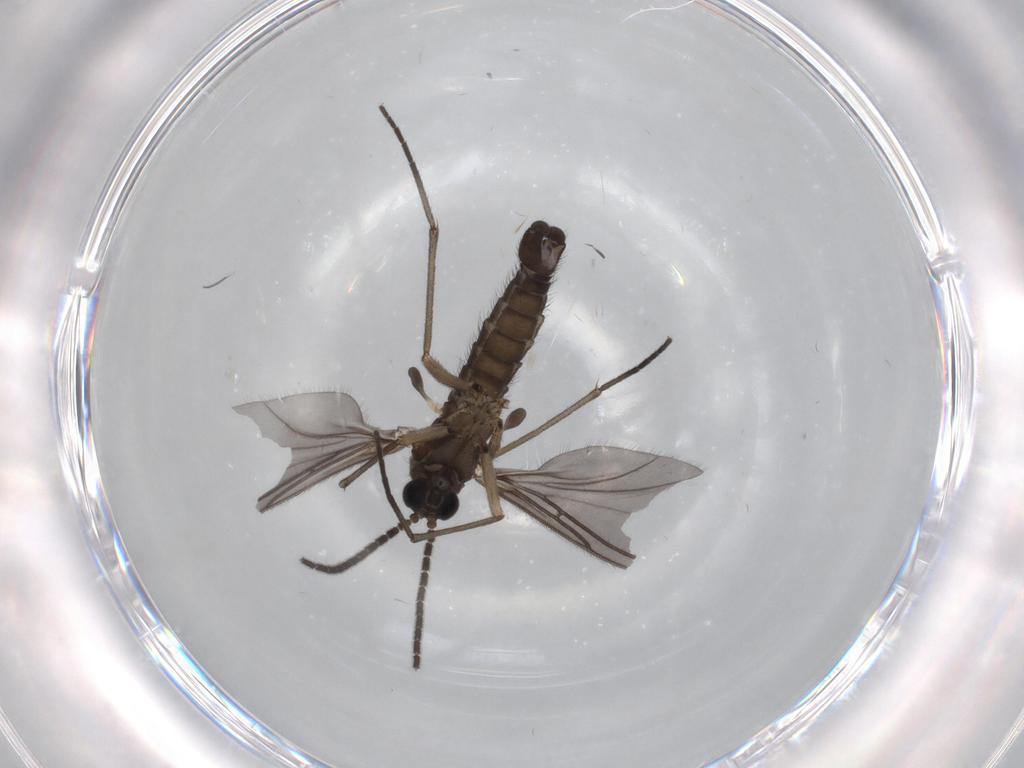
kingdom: Animalia
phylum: Arthropoda
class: Insecta
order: Diptera
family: Sciaridae
